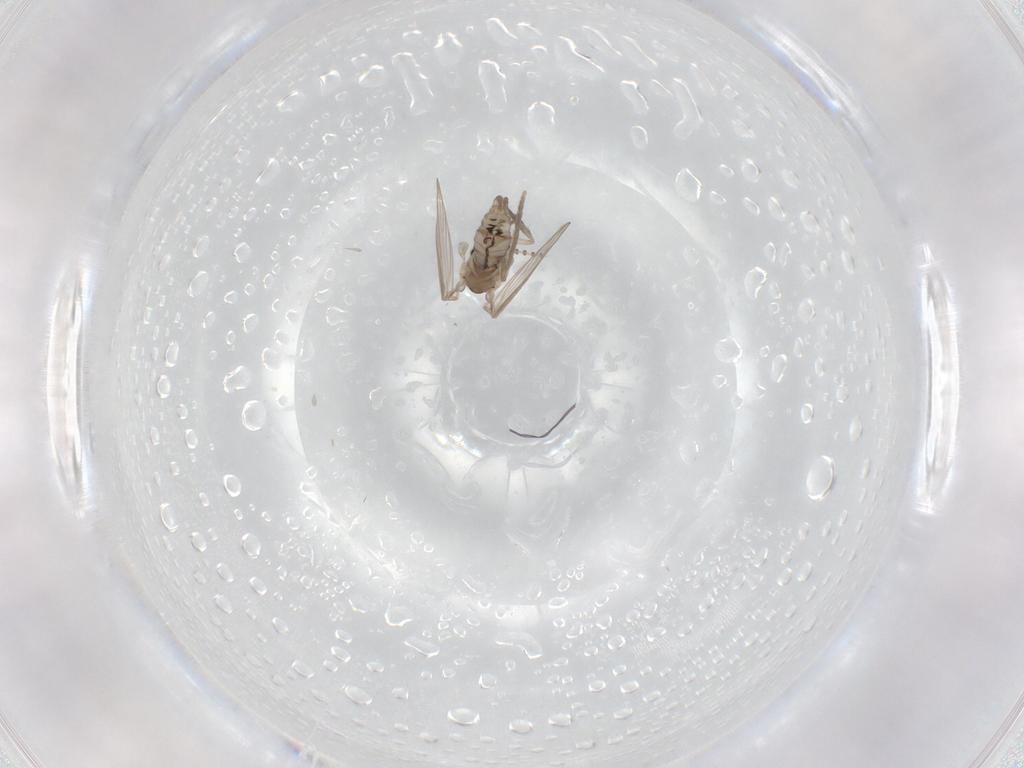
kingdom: Animalia
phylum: Arthropoda
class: Insecta
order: Diptera
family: Psychodidae
